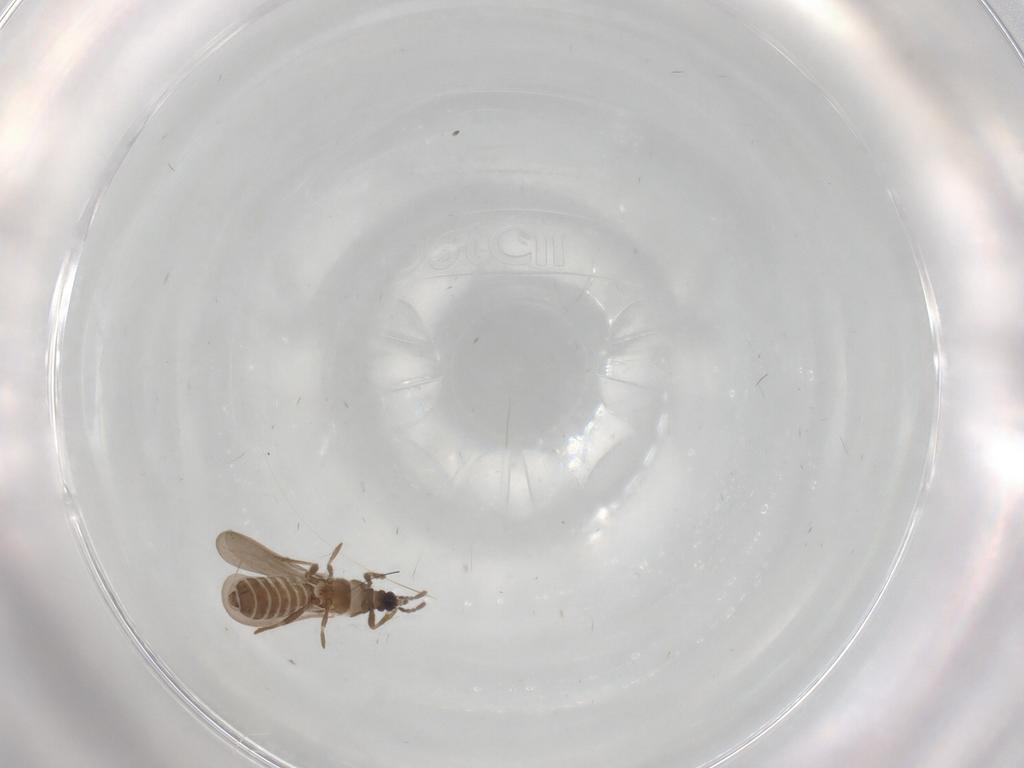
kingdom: Animalia
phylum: Arthropoda
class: Insecta
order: Hemiptera
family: Enicocephalidae
